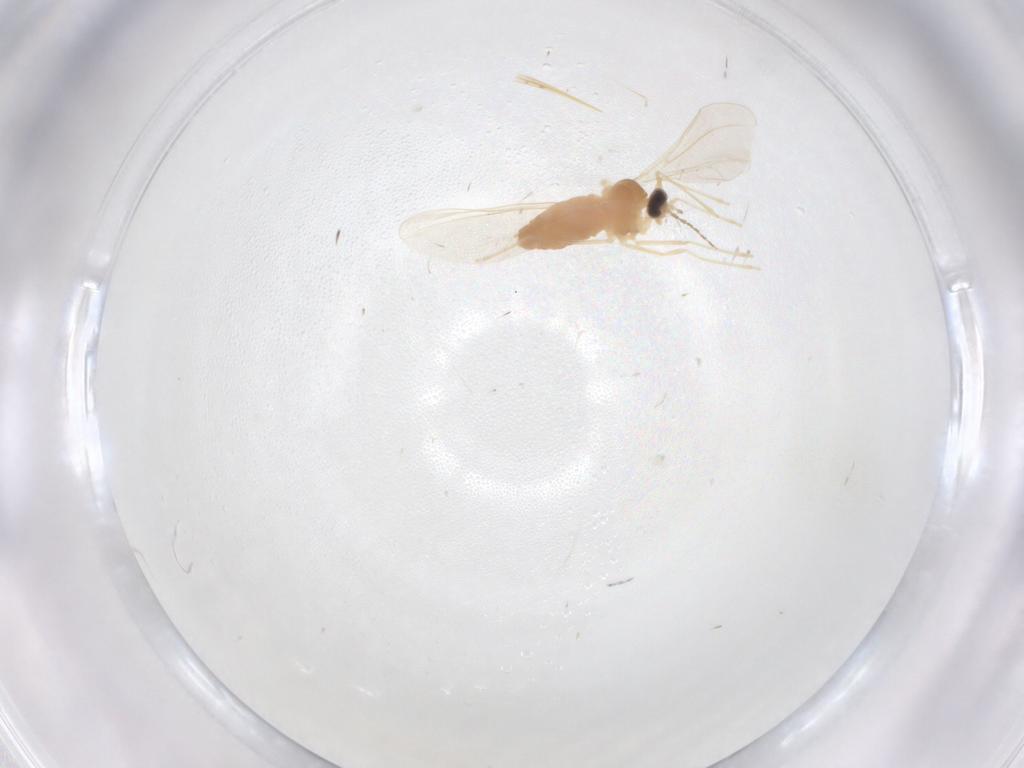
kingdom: Animalia
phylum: Arthropoda
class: Insecta
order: Diptera
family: Cecidomyiidae
